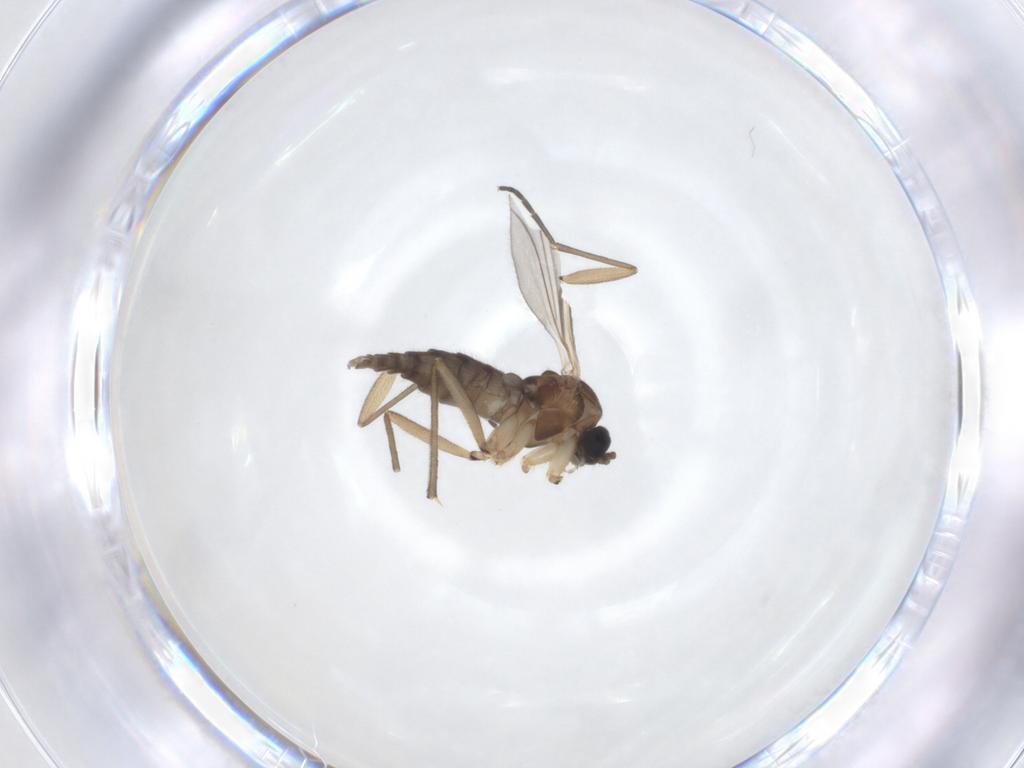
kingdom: Animalia
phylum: Arthropoda
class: Insecta
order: Diptera
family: Sciaridae
